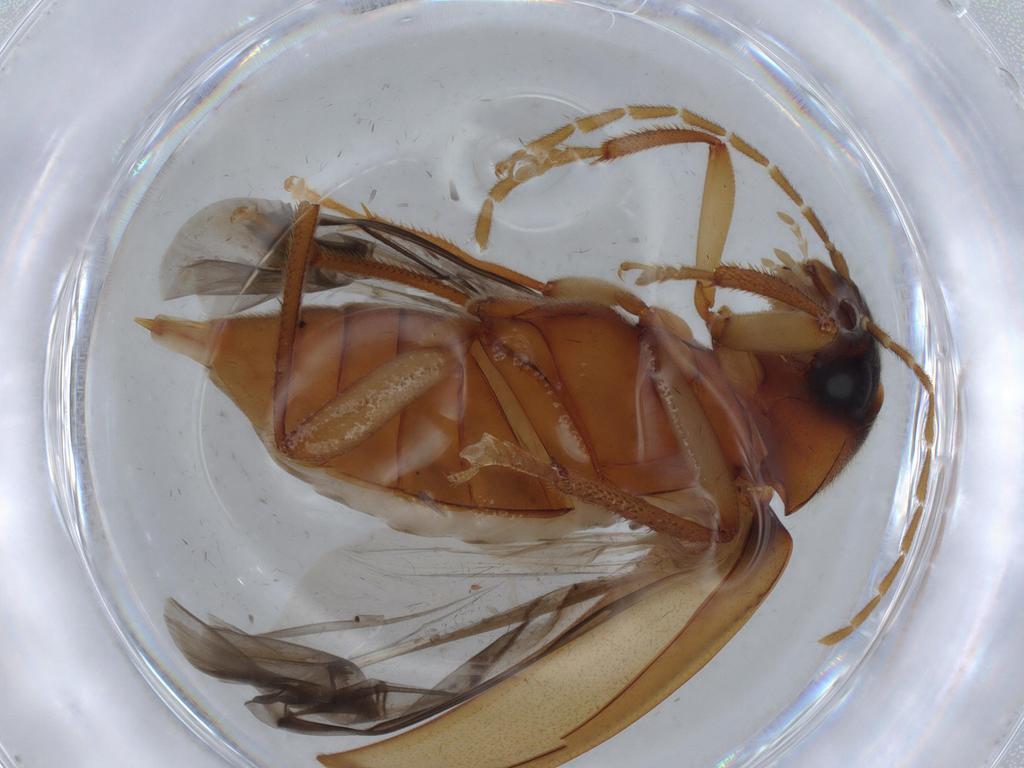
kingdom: Animalia
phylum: Arthropoda
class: Insecta
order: Coleoptera
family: Ptilodactylidae
